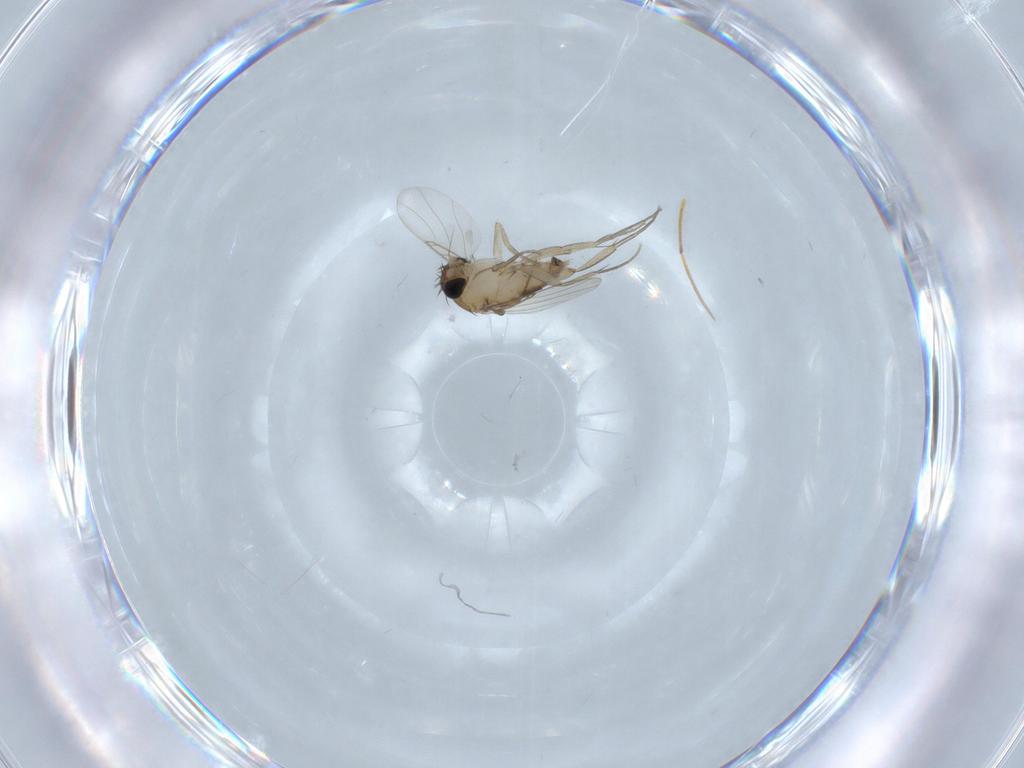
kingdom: Animalia
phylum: Arthropoda
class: Insecta
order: Diptera
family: Phoridae
